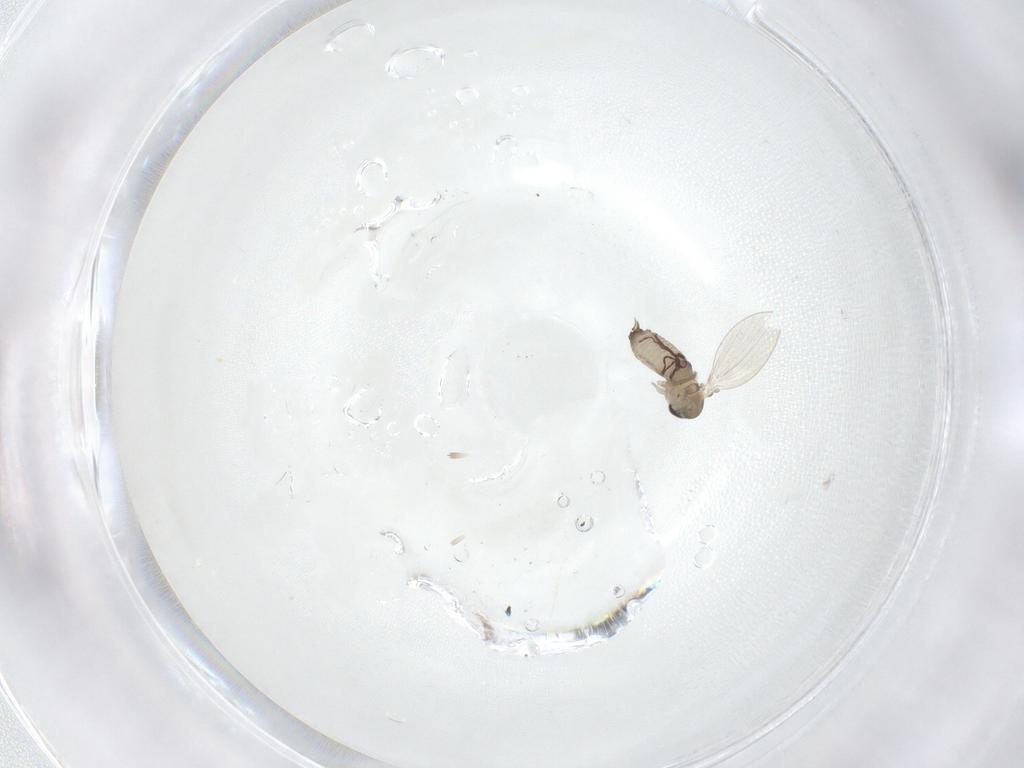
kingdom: Animalia
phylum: Arthropoda
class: Insecta
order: Diptera
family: Psychodidae
